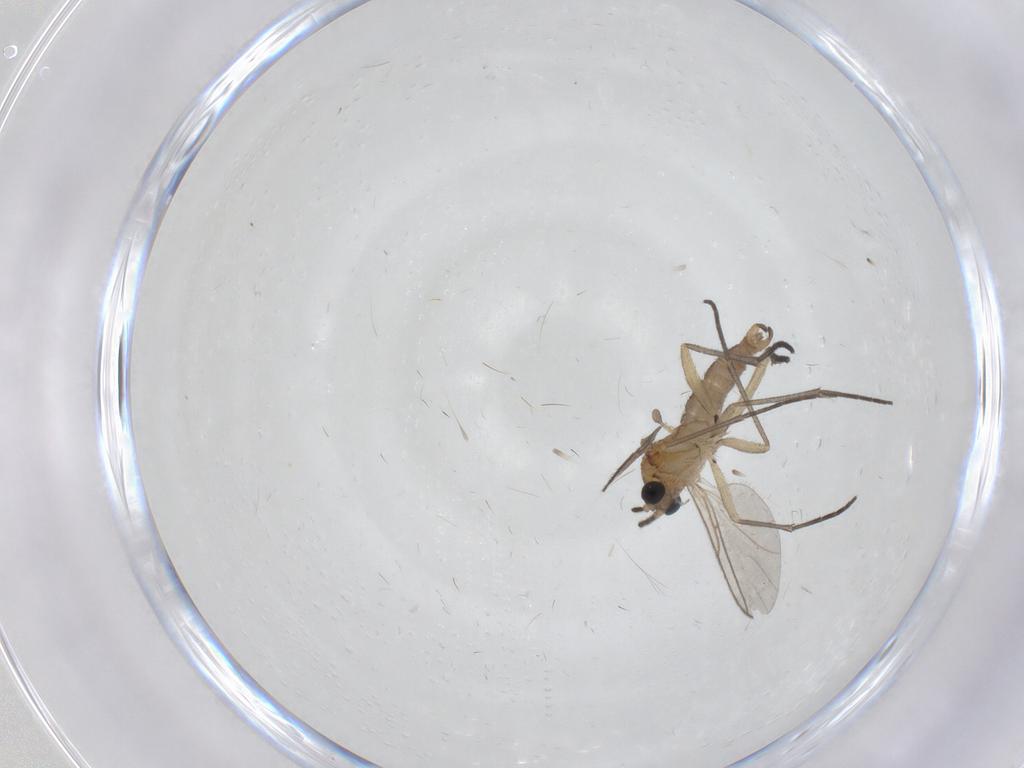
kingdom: Animalia
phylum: Arthropoda
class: Insecta
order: Diptera
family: Sciaridae
